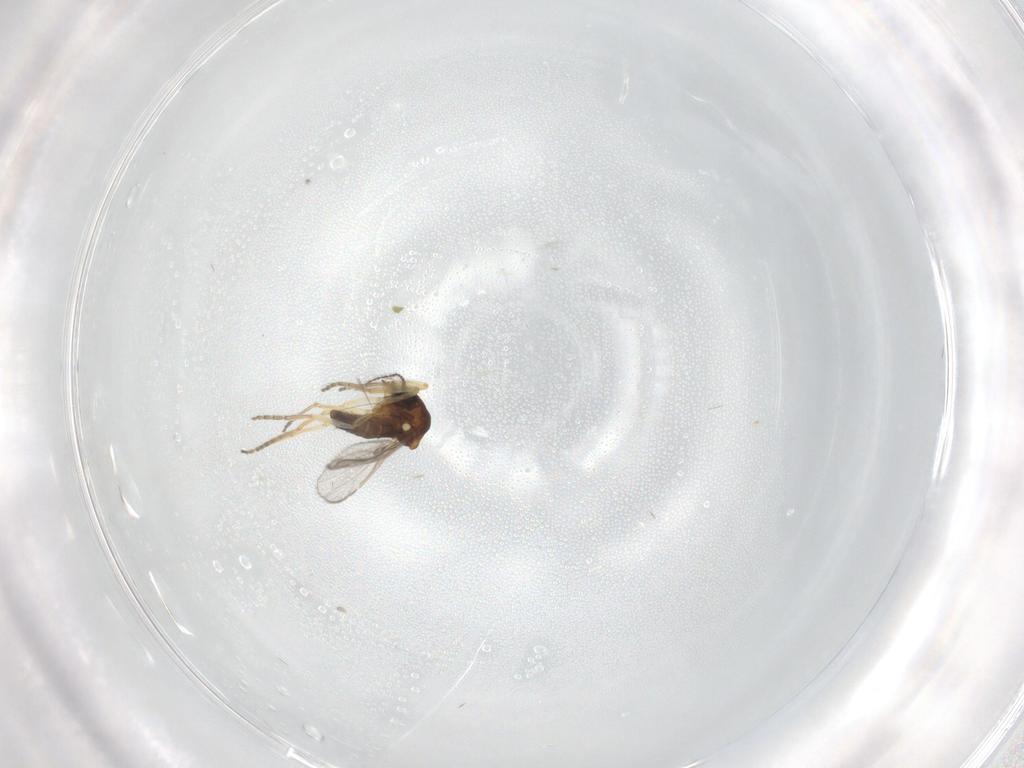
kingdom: Animalia
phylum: Arthropoda
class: Insecta
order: Diptera
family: Ceratopogonidae
